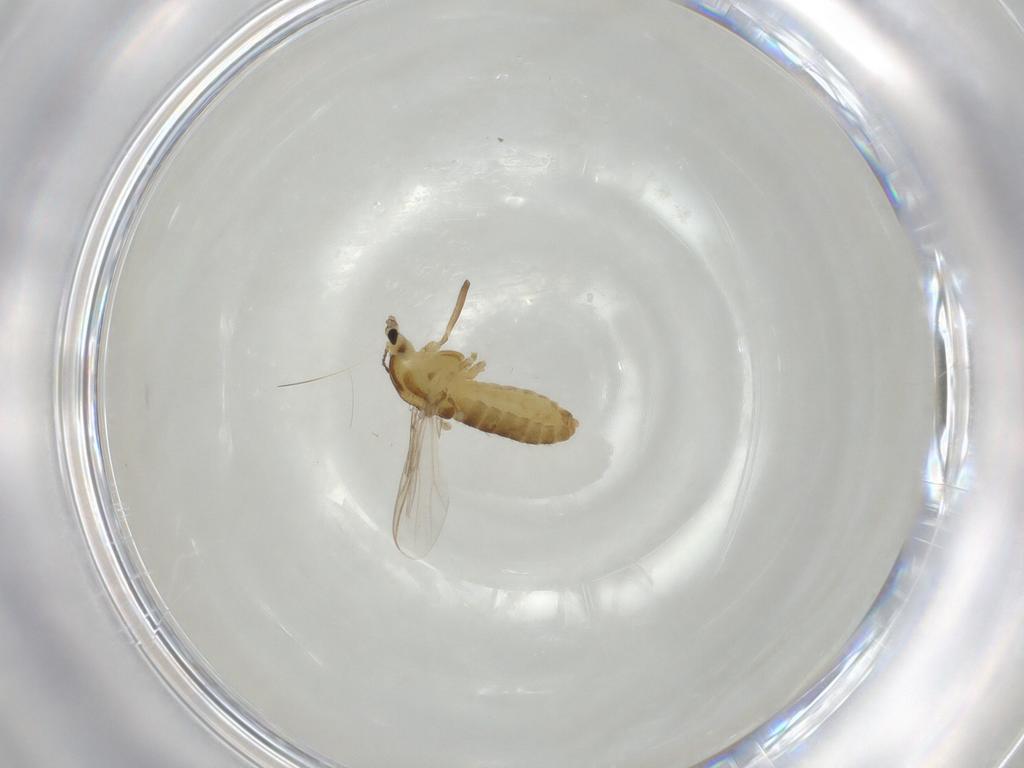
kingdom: Animalia
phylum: Arthropoda
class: Insecta
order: Diptera
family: Chironomidae
